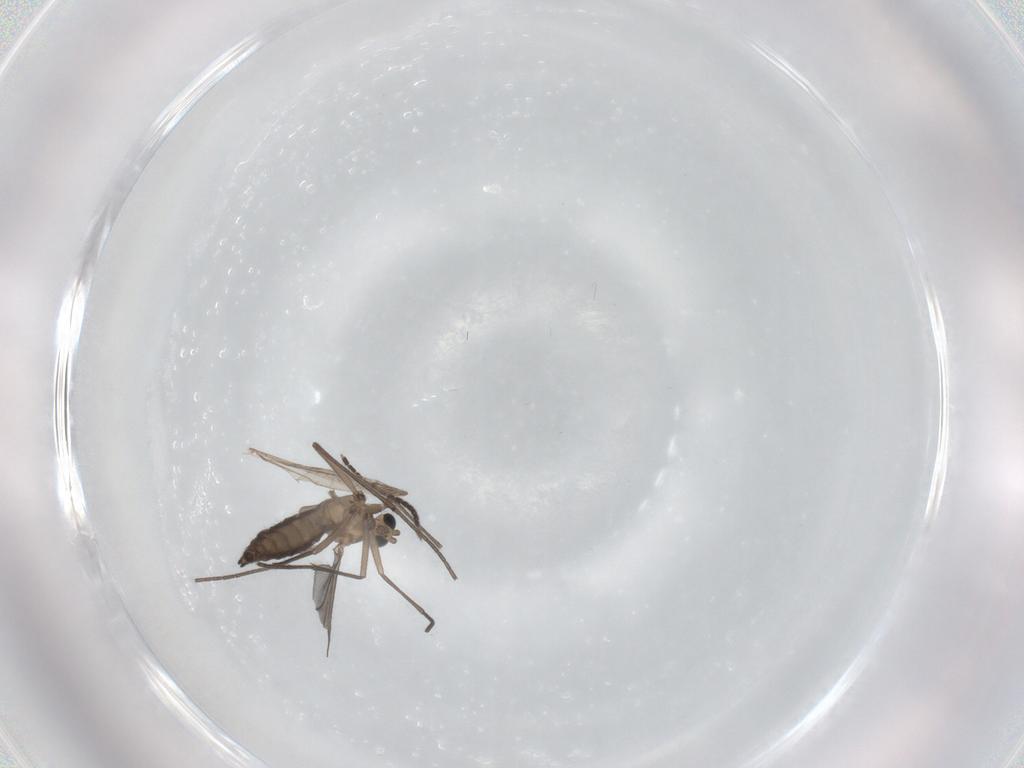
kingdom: Animalia
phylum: Arthropoda
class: Insecta
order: Diptera
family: Sciaridae
